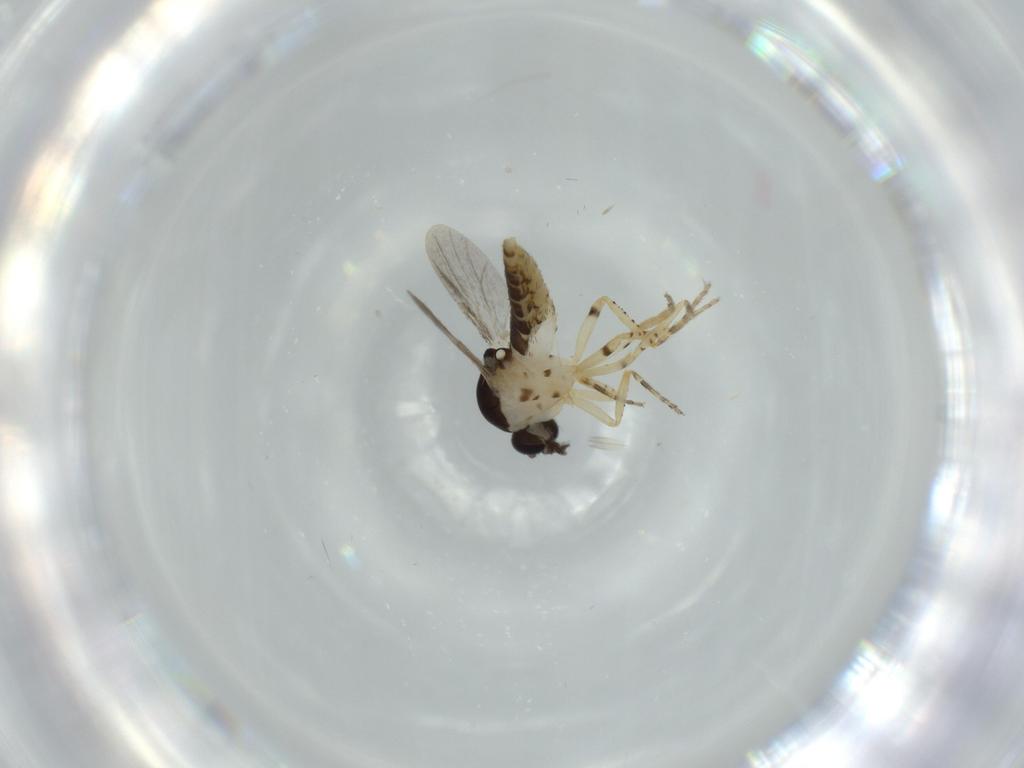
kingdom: Animalia
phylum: Arthropoda
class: Insecta
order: Diptera
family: Ceratopogonidae
